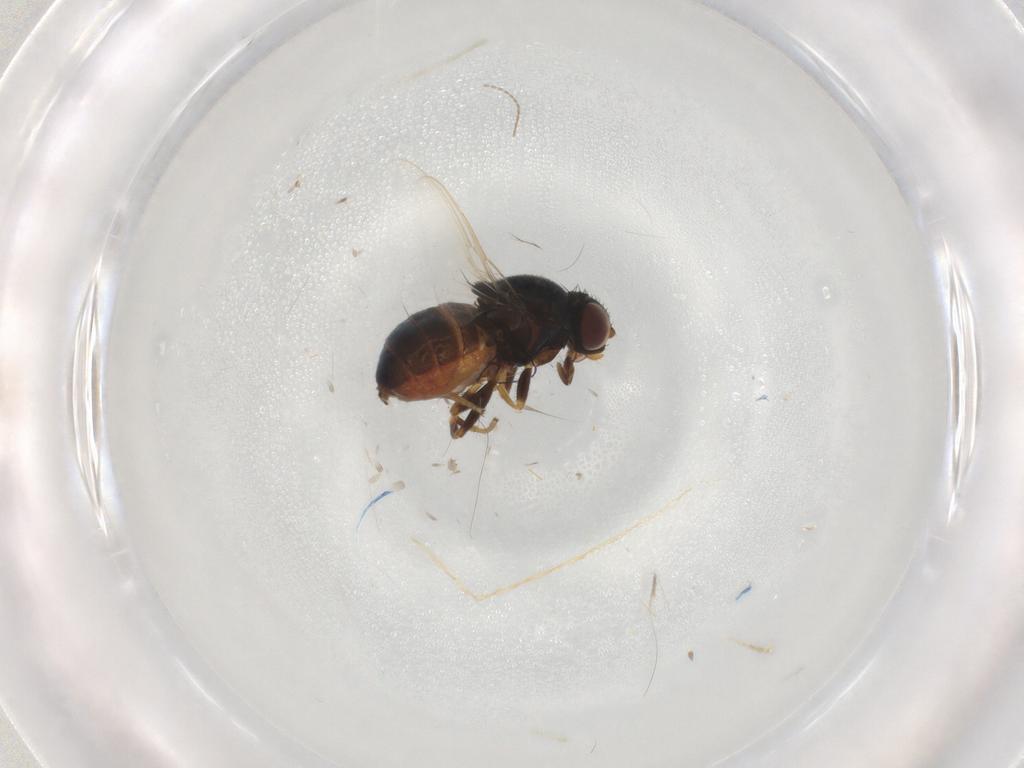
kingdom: Animalia
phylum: Arthropoda
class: Insecta
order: Diptera
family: Chloropidae
